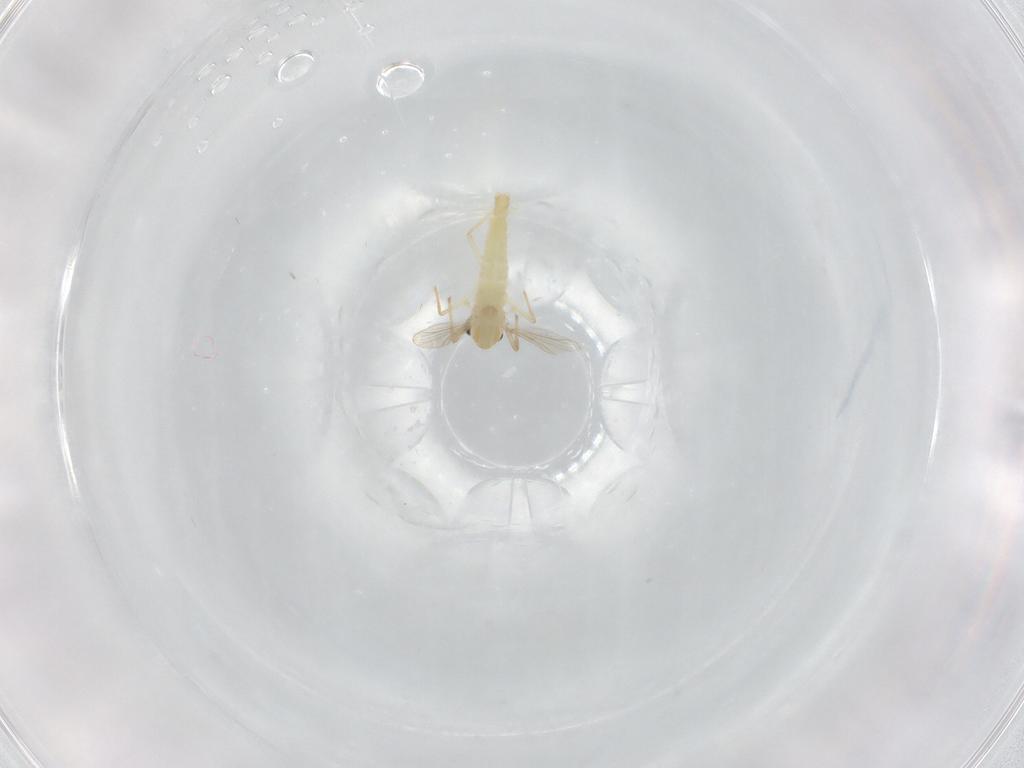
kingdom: Animalia
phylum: Arthropoda
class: Insecta
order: Diptera
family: Chironomidae
